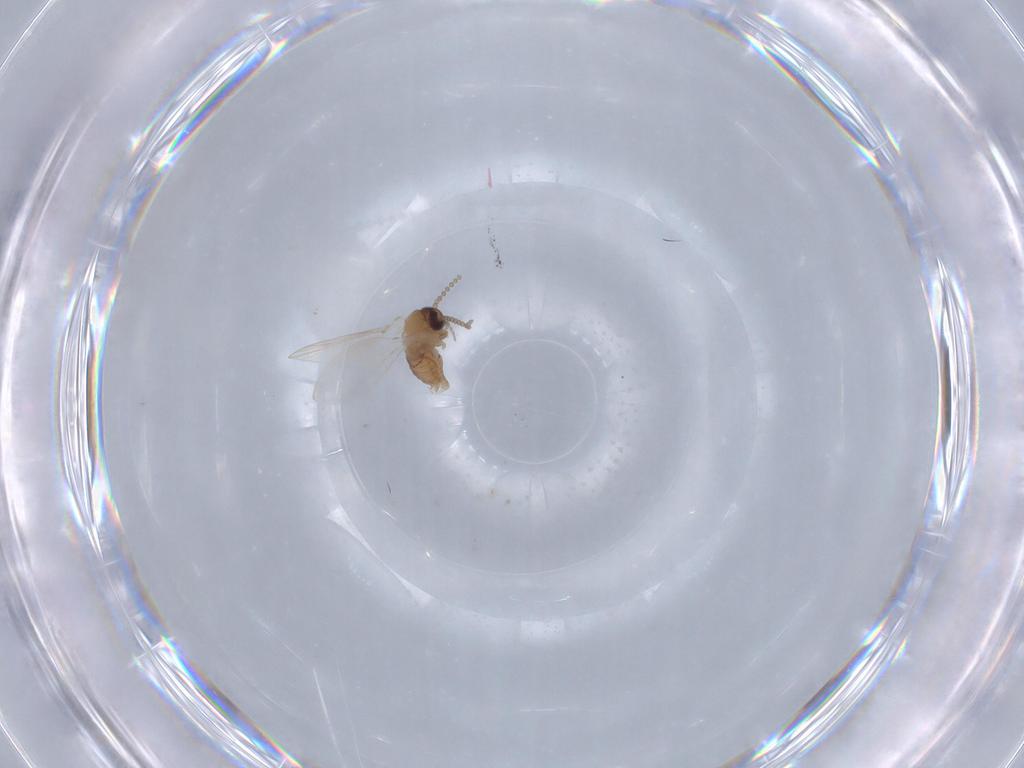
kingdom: Animalia
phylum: Arthropoda
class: Insecta
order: Diptera
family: Psychodidae
